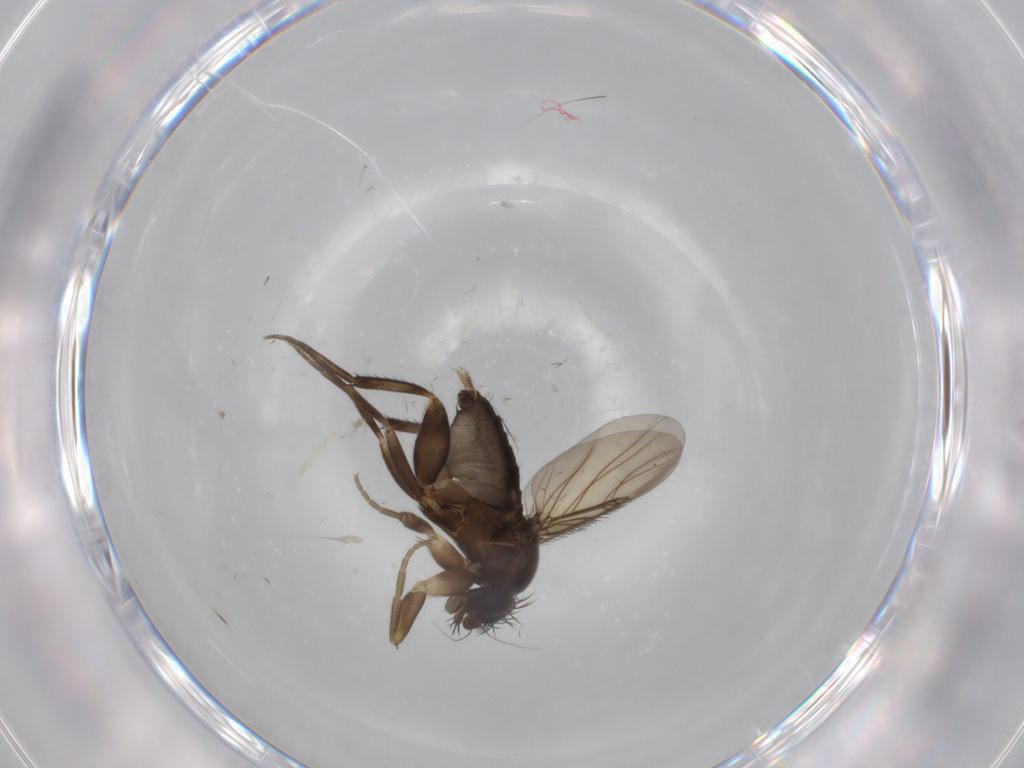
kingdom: Animalia
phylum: Arthropoda
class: Insecta
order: Diptera
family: Phoridae
